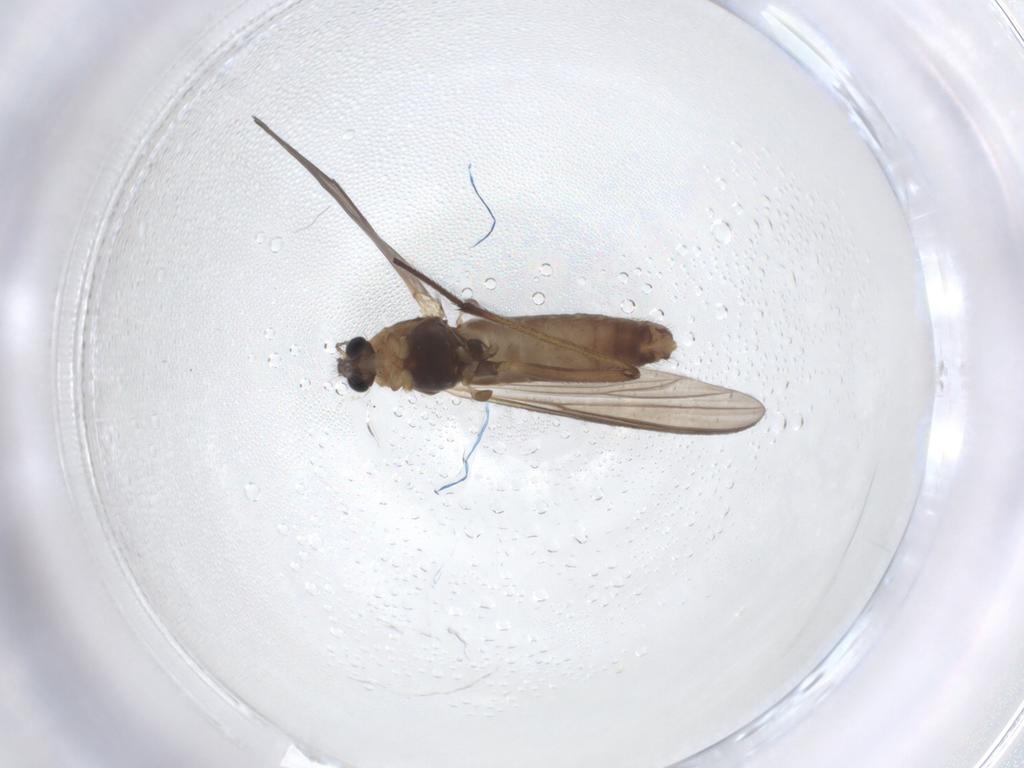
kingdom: Animalia
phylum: Arthropoda
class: Insecta
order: Diptera
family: Chironomidae
